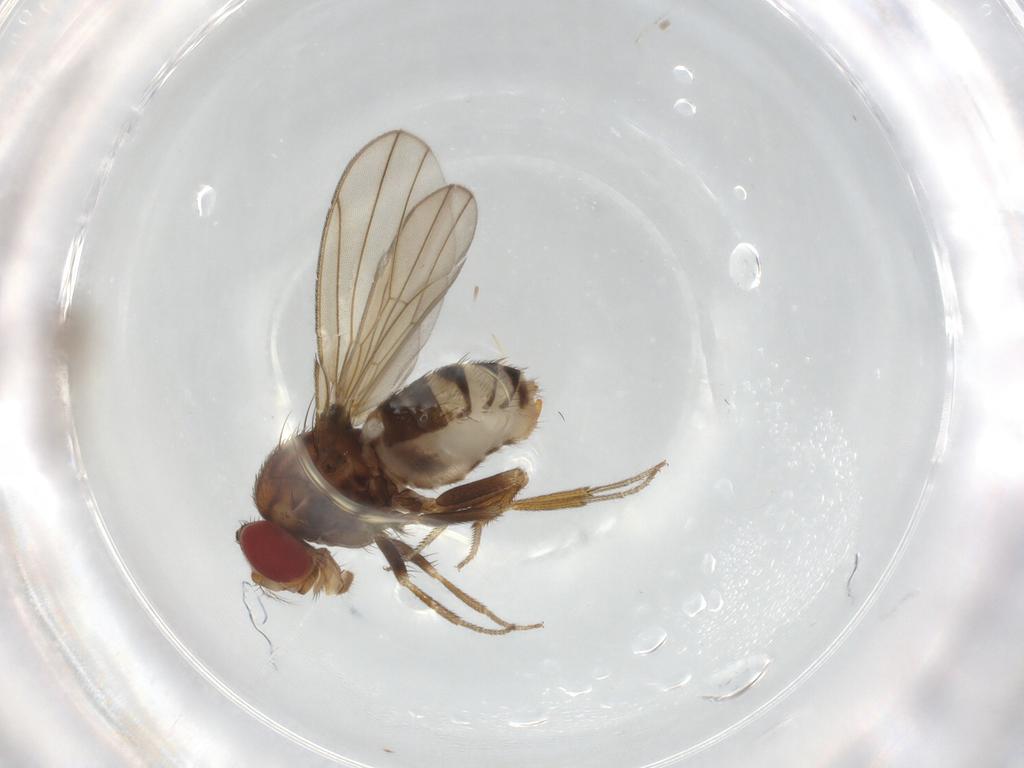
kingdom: Animalia
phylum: Arthropoda
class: Insecta
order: Diptera
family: Drosophilidae
